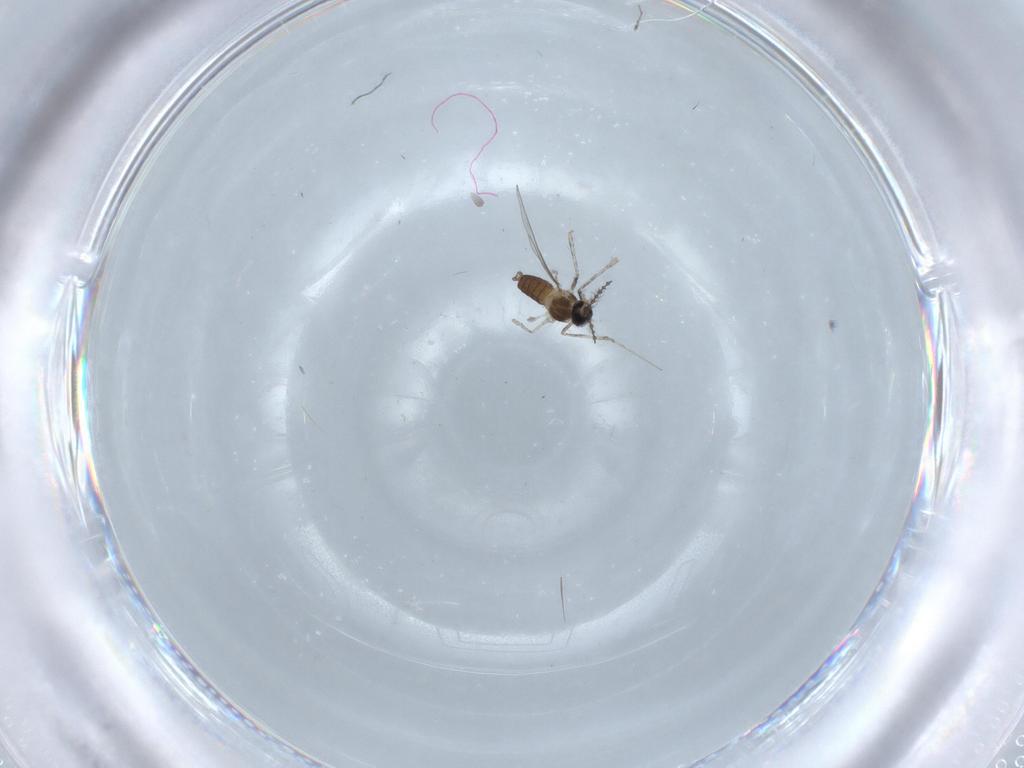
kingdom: Animalia
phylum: Arthropoda
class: Insecta
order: Diptera
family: Cecidomyiidae
